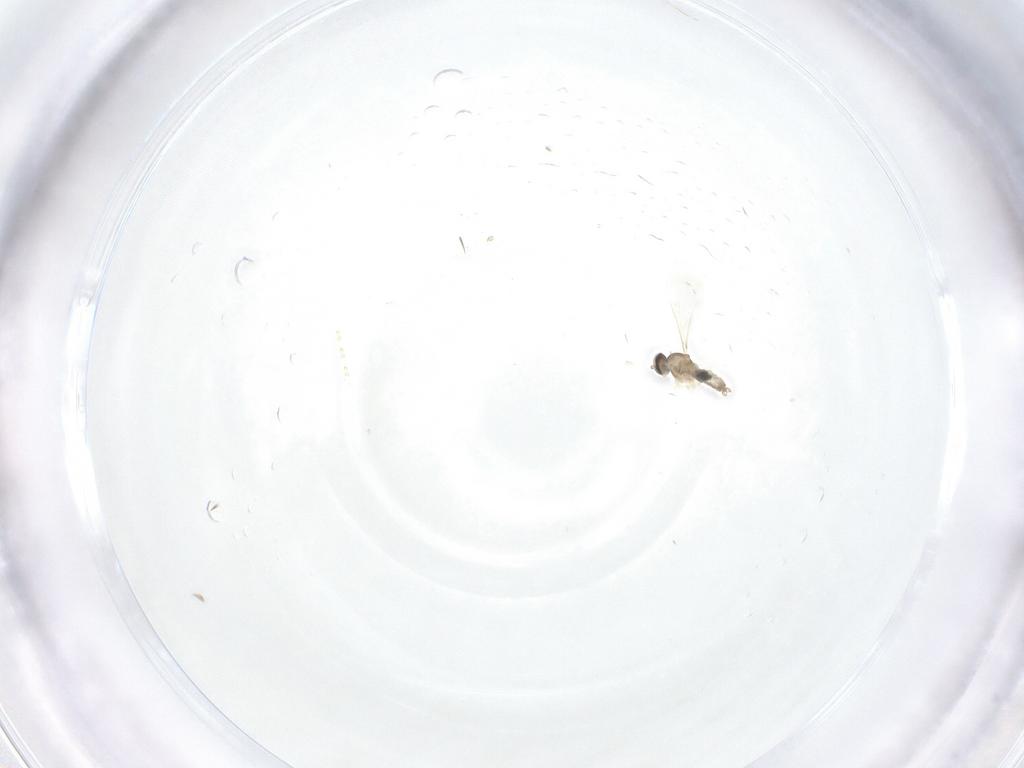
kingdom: Animalia
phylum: Arthropoda
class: Insecta
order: Diptera
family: Cecidomyiidae
